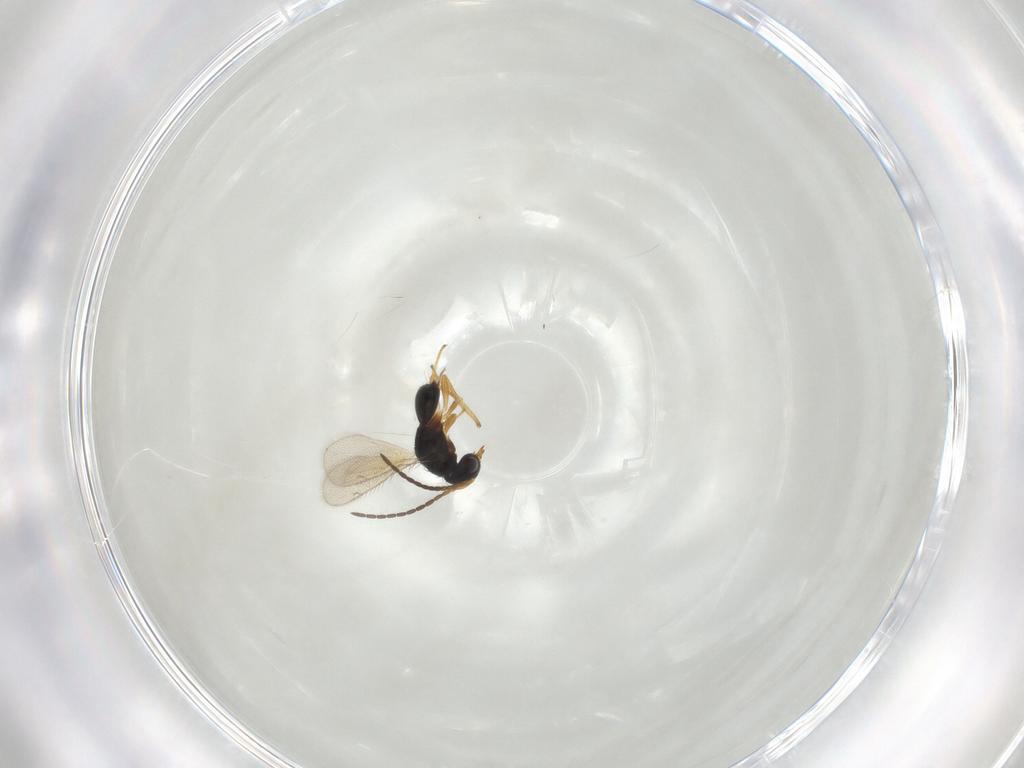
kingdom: Animalia
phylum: Arthropoda
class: Insecta
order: Hymenoptera
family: Diparidae
